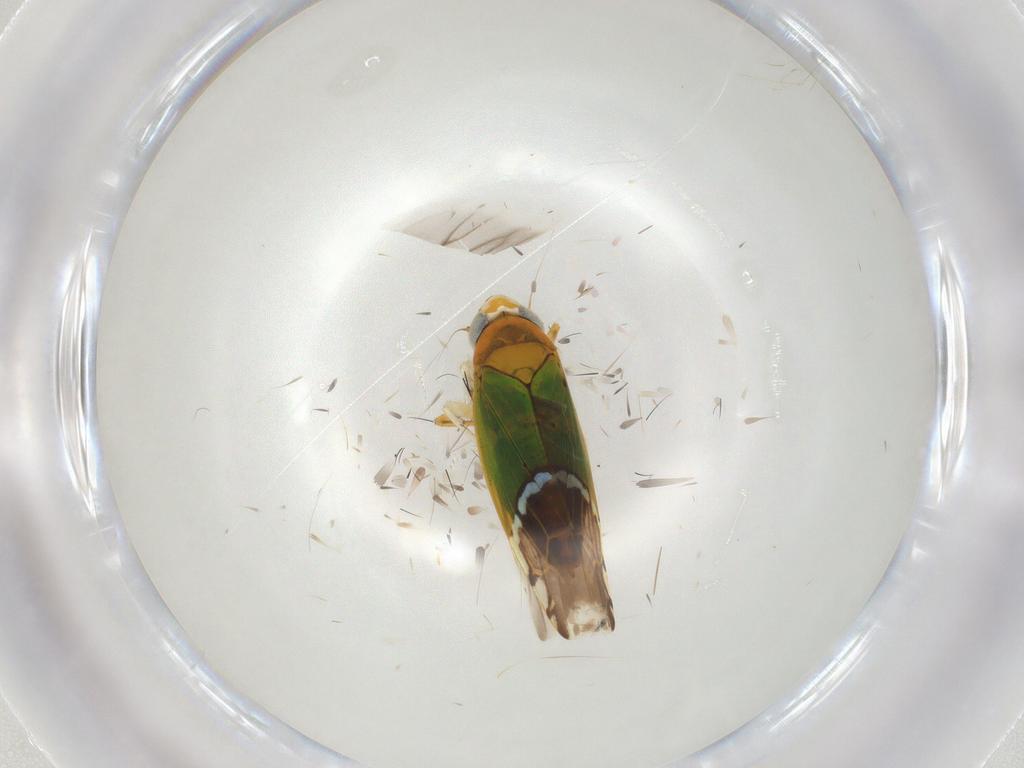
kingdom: Animalia
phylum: Arthropoda
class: Insecta
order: Hemiptera
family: Cicadellidae
